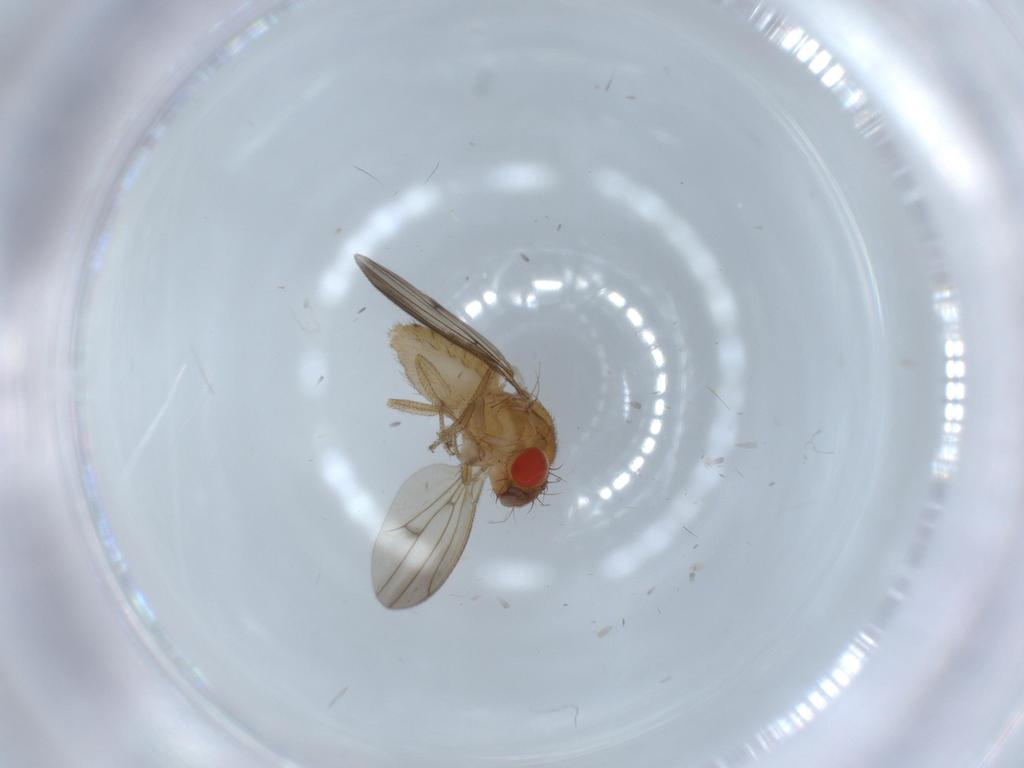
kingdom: Animalia
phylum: Arthropoda
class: Insecta
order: Diptera
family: Drosophilidae
